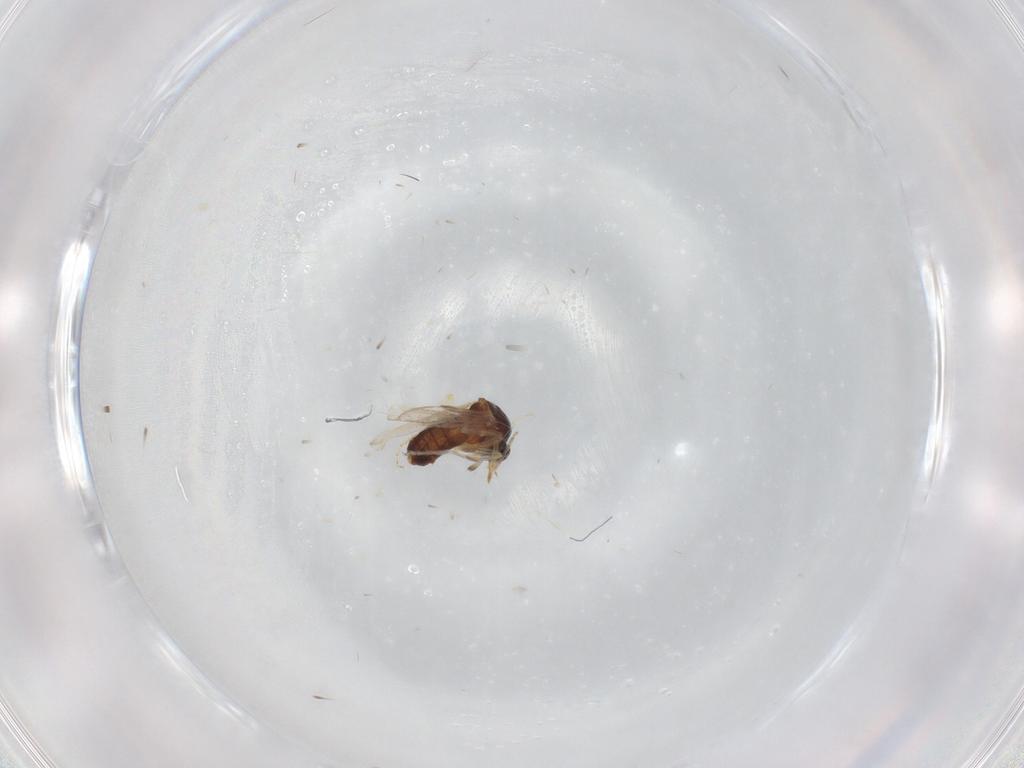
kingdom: Animalia
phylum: Arthropoda
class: Insecta
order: Diptera
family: Ceratopogonidae
